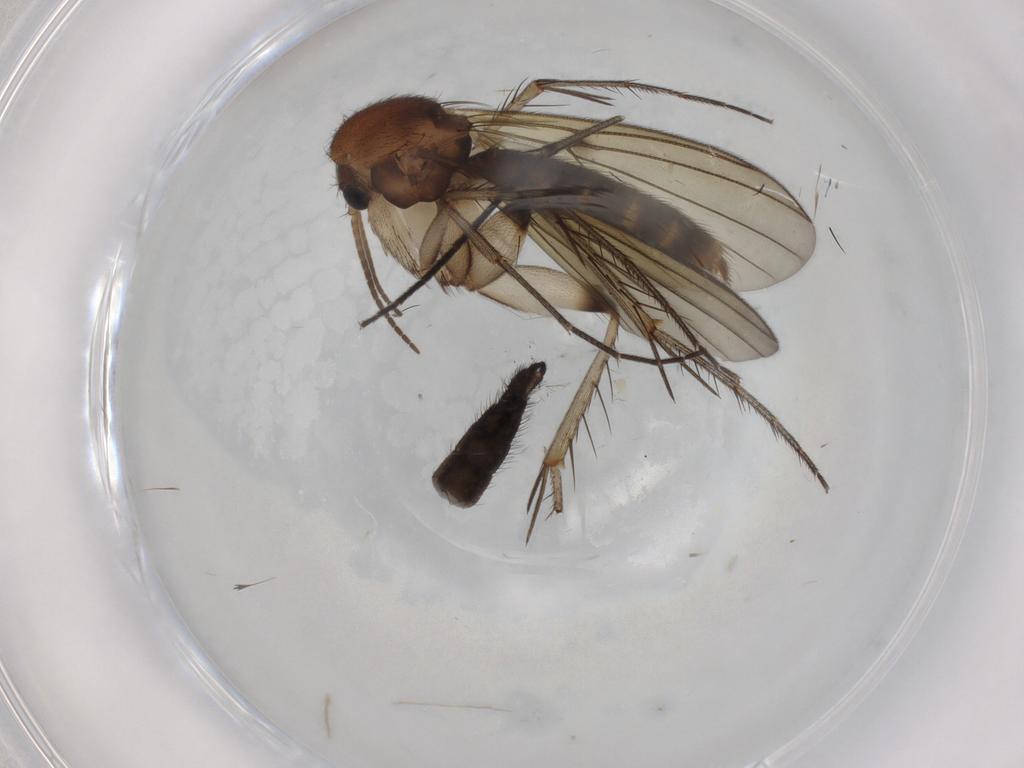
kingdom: Animalia
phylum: Arthropoda
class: Insecta
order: Diptera
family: Mycetophilidae
